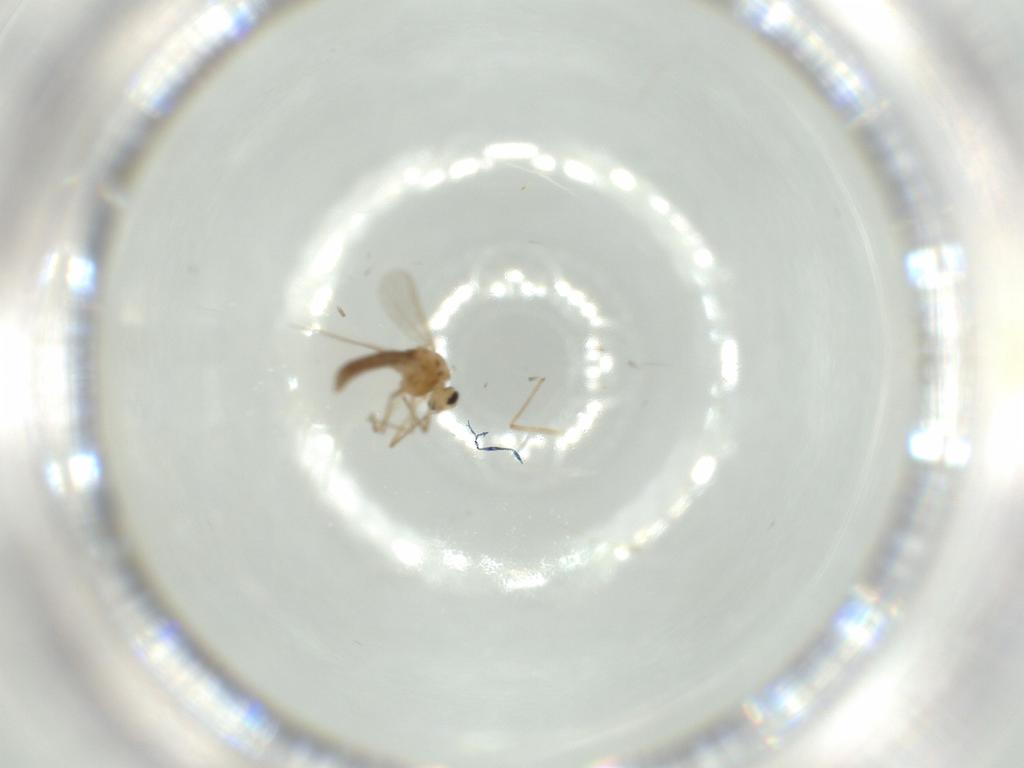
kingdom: Animalia
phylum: Arthropoda
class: Insecta
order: Diptera
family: Chironomidae
